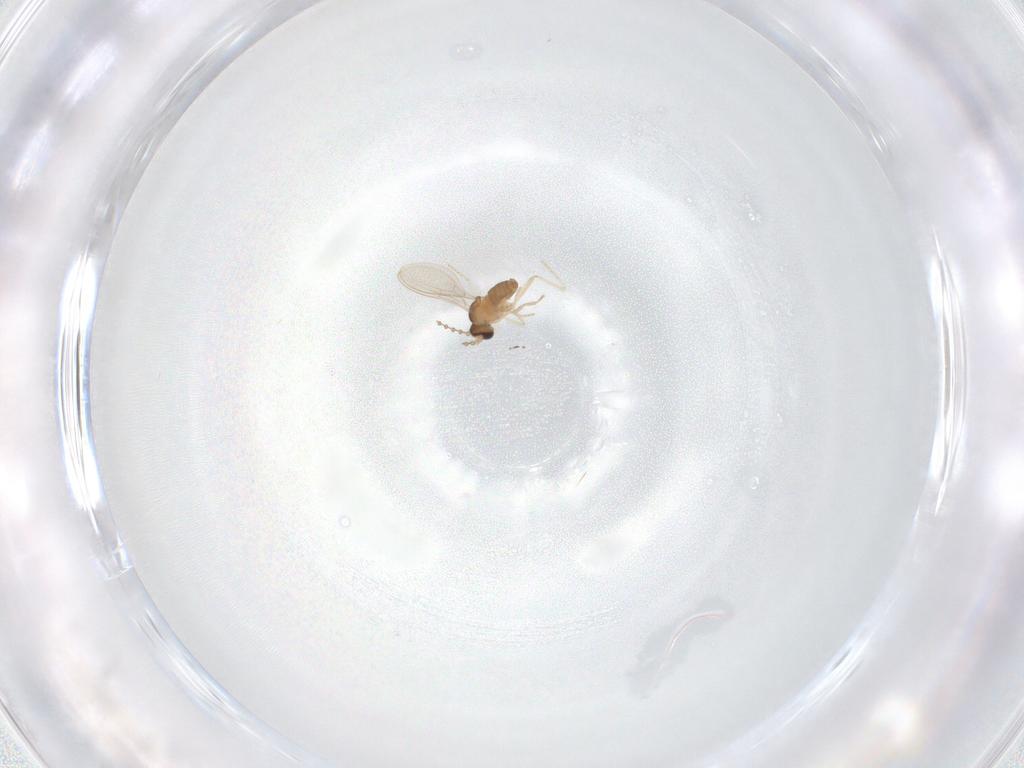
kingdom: Animalia
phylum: Arthropoda
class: Insecta
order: Diptera
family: Cecidomyiidae
